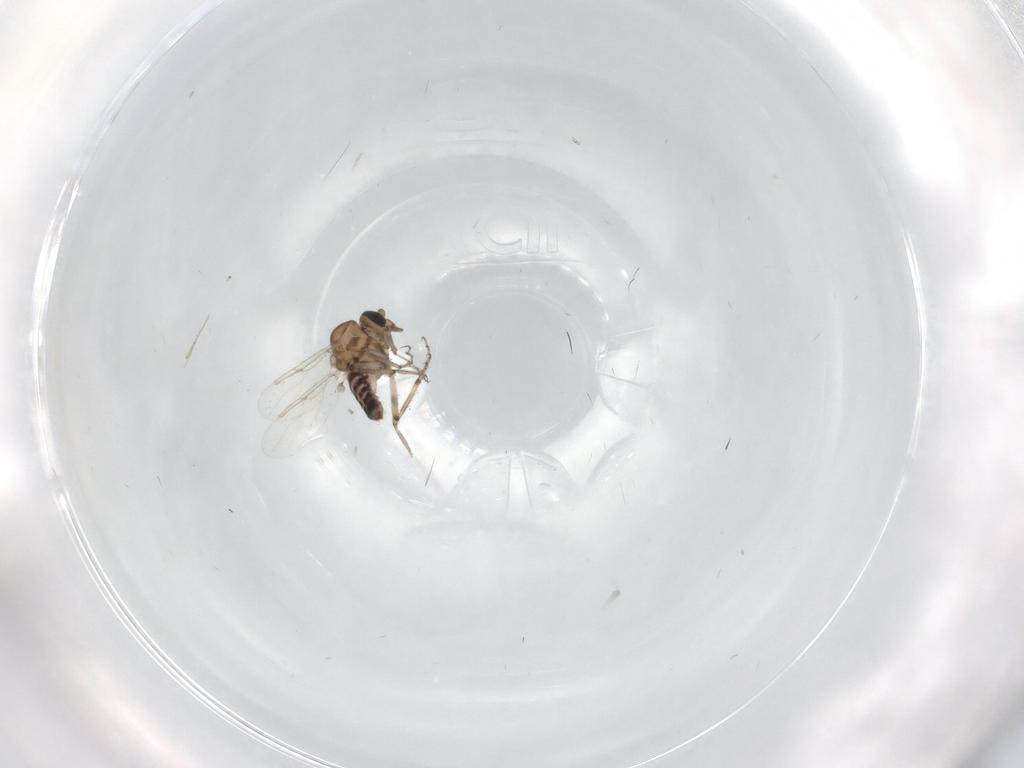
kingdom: Animalia
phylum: Arthropoda
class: Insecta
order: Diptera
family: Ceratopogonidae
